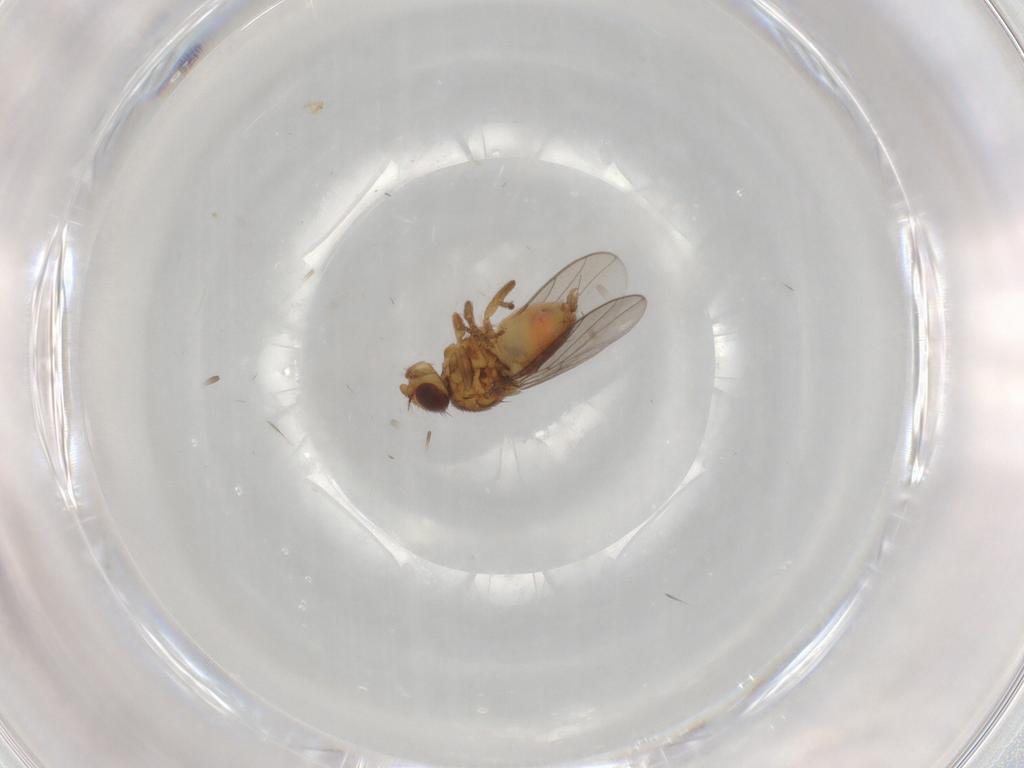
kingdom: Animalia
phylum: Arthropoda
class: Insecta
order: Diptera
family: Chloropidae
